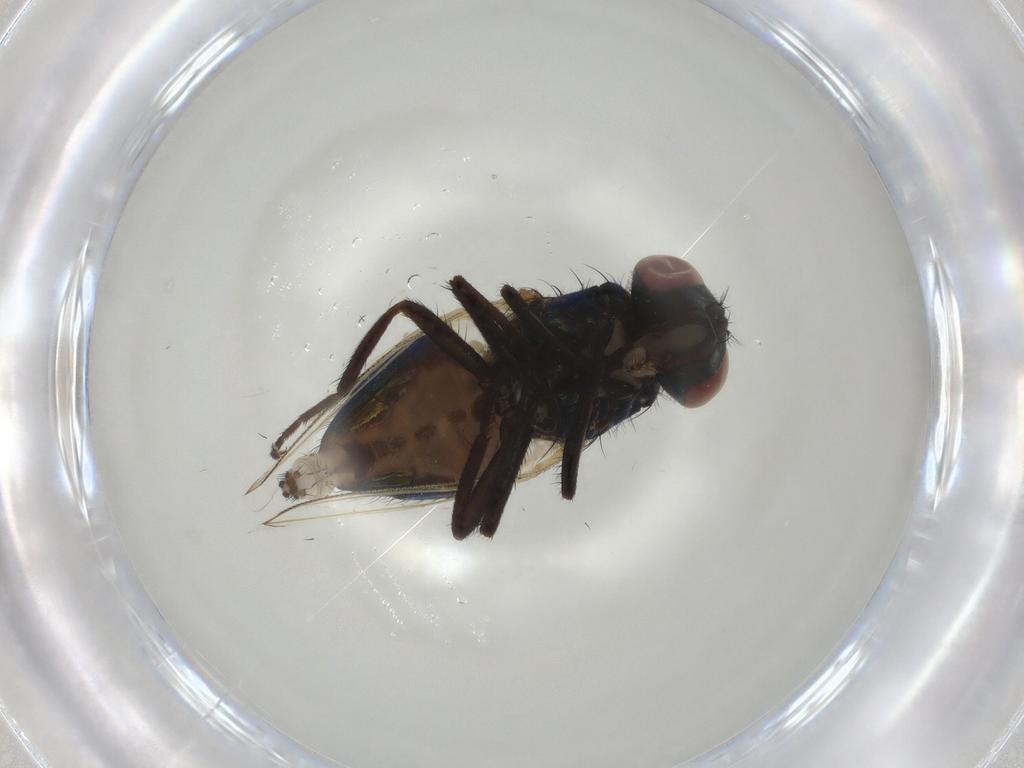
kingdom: Animalia
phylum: Arthropoda
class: Insecta
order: Diptera
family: Muscidae
